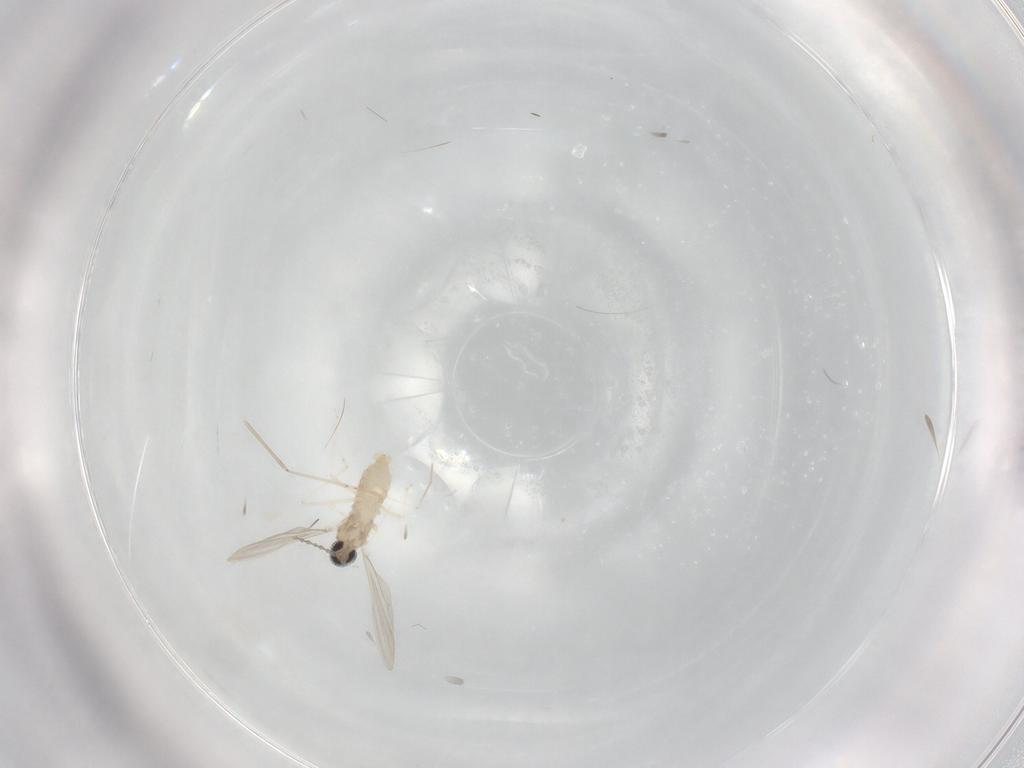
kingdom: Animalia
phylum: Arthropoda
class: Insecta
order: Diptera
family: Cecidomyiidae
